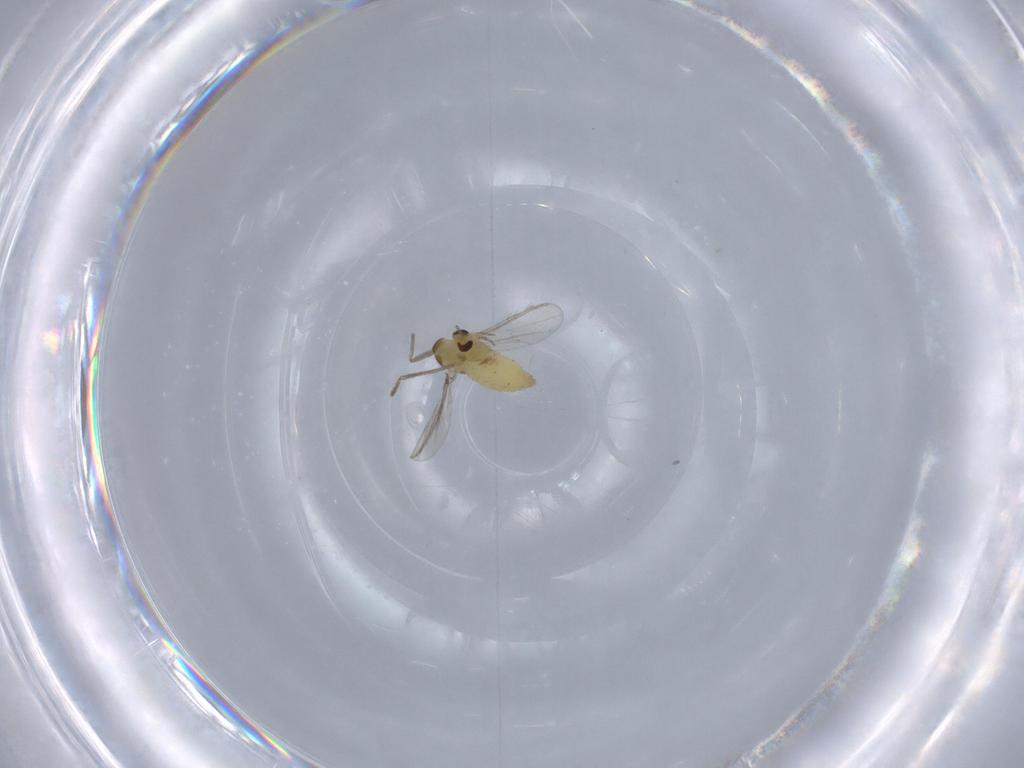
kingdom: Animalia
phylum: Arthropoda
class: Insecta
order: Diptera
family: Chironomidae
